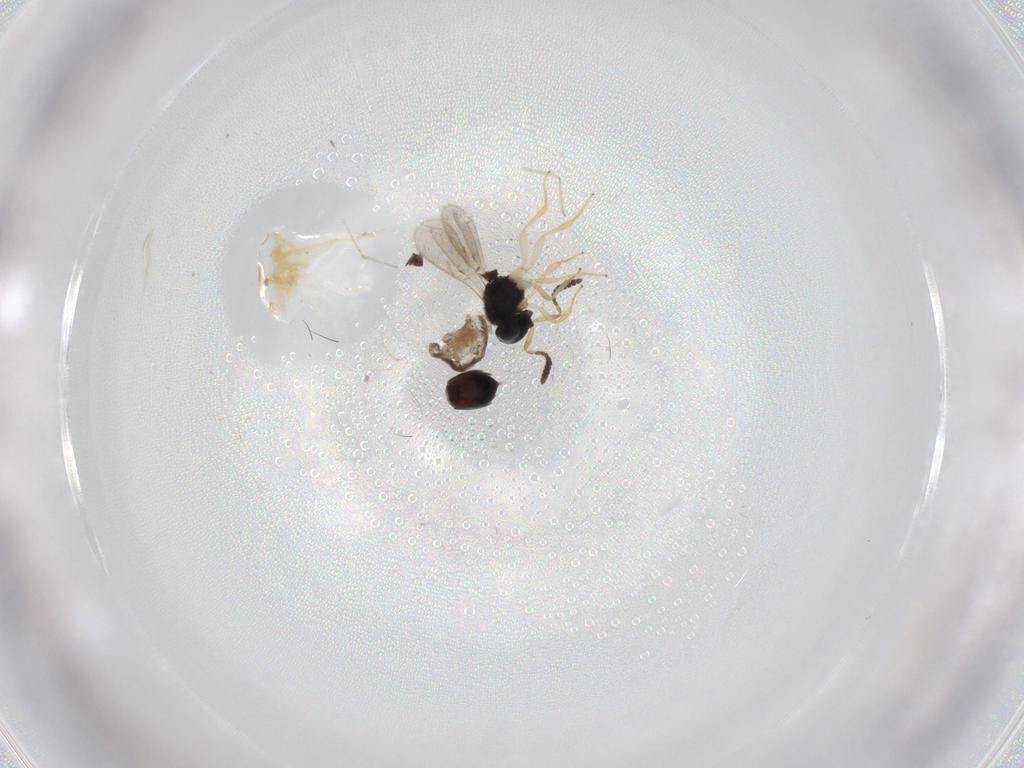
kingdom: Animalia
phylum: Arthropoda
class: Insecta
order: Hymenoptera
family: Scelionidae
